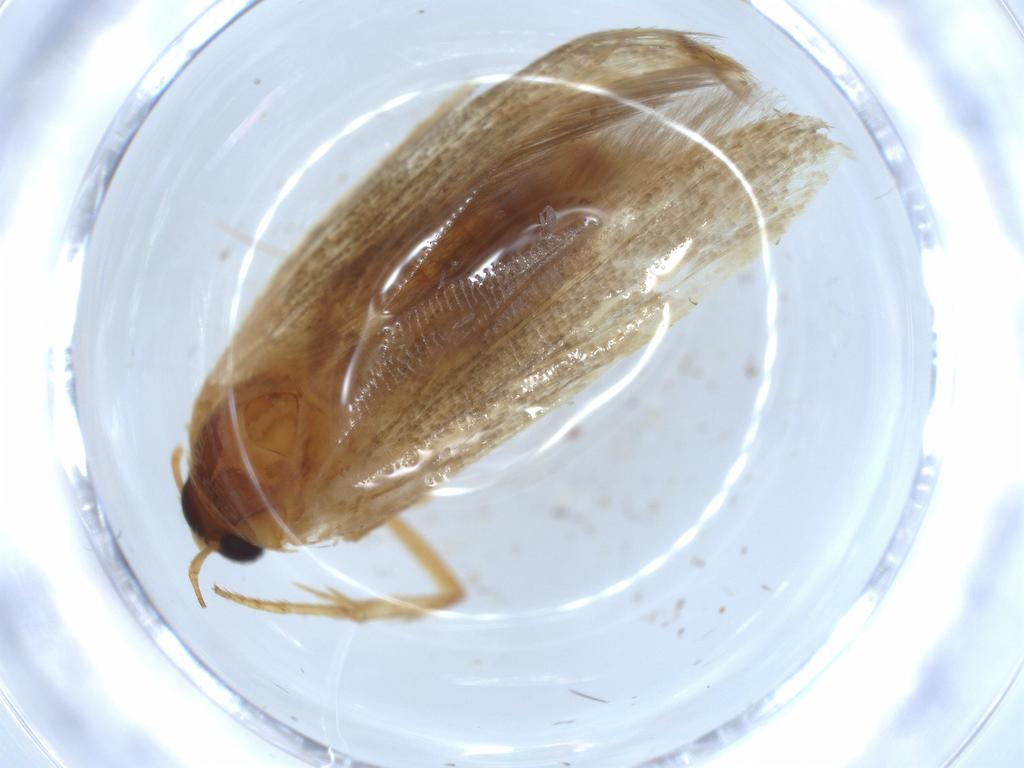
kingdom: Animalia
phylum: Arthropoda
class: Insecta
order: Lepidoptera
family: Blastobasidae
